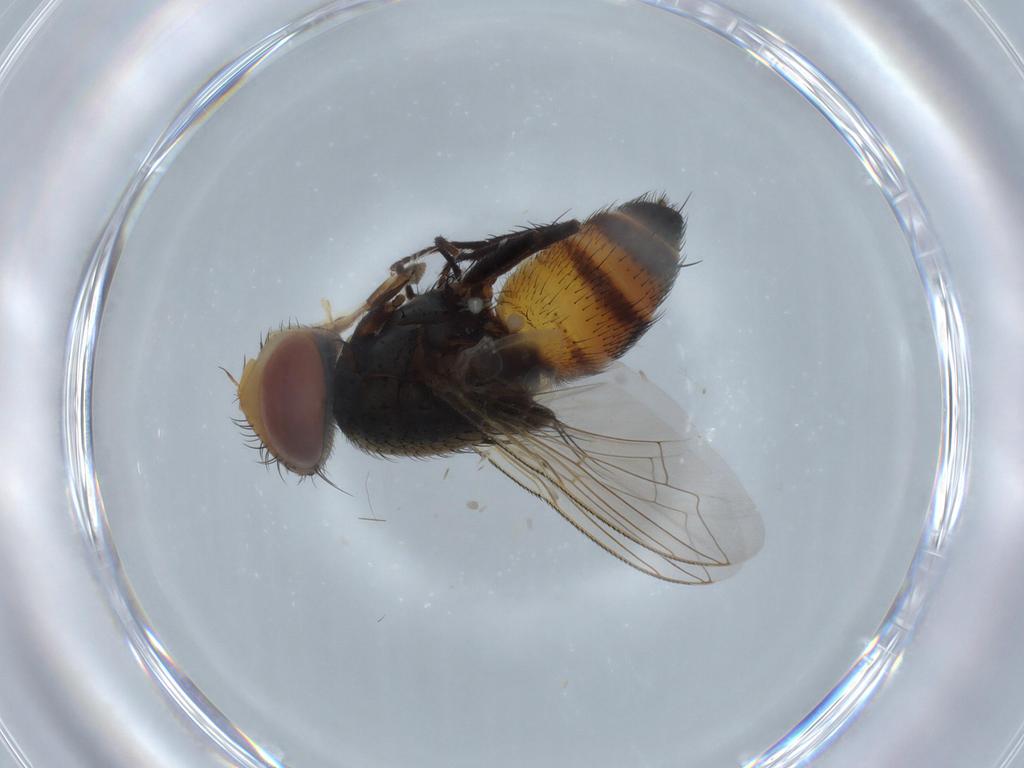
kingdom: Animalia
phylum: Arthropoda
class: Insecta
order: Diptera
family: Sarcophagidae
